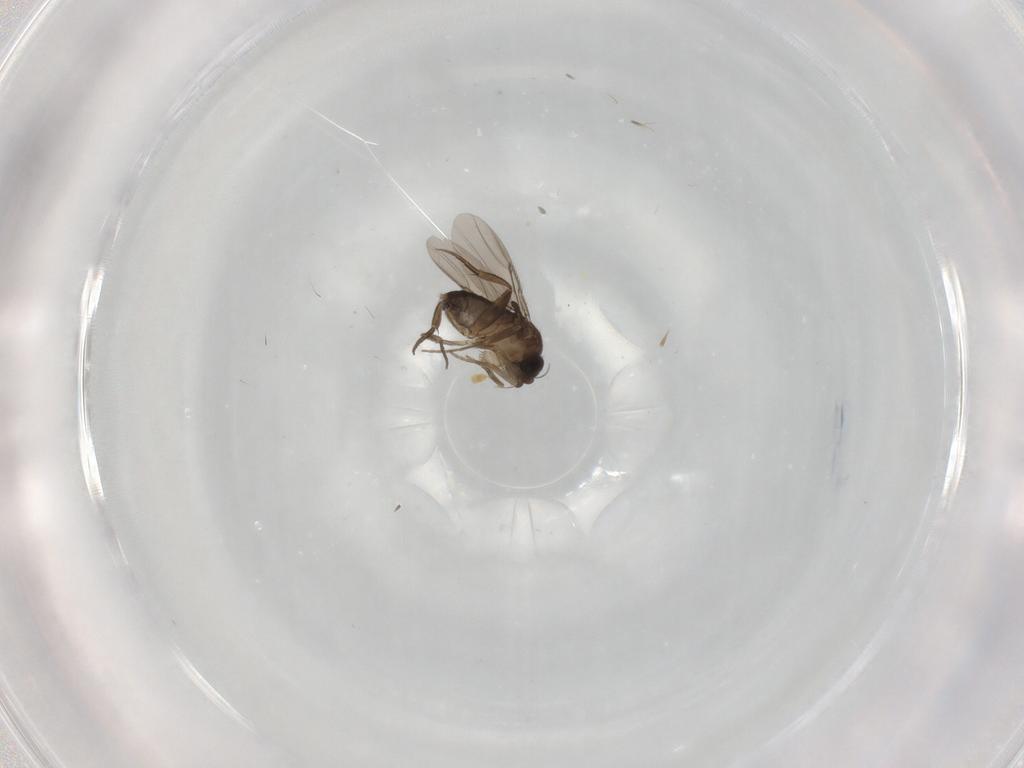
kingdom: Animalia
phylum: Arthropoda
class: Insecta
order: Diptera
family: Phoridae
